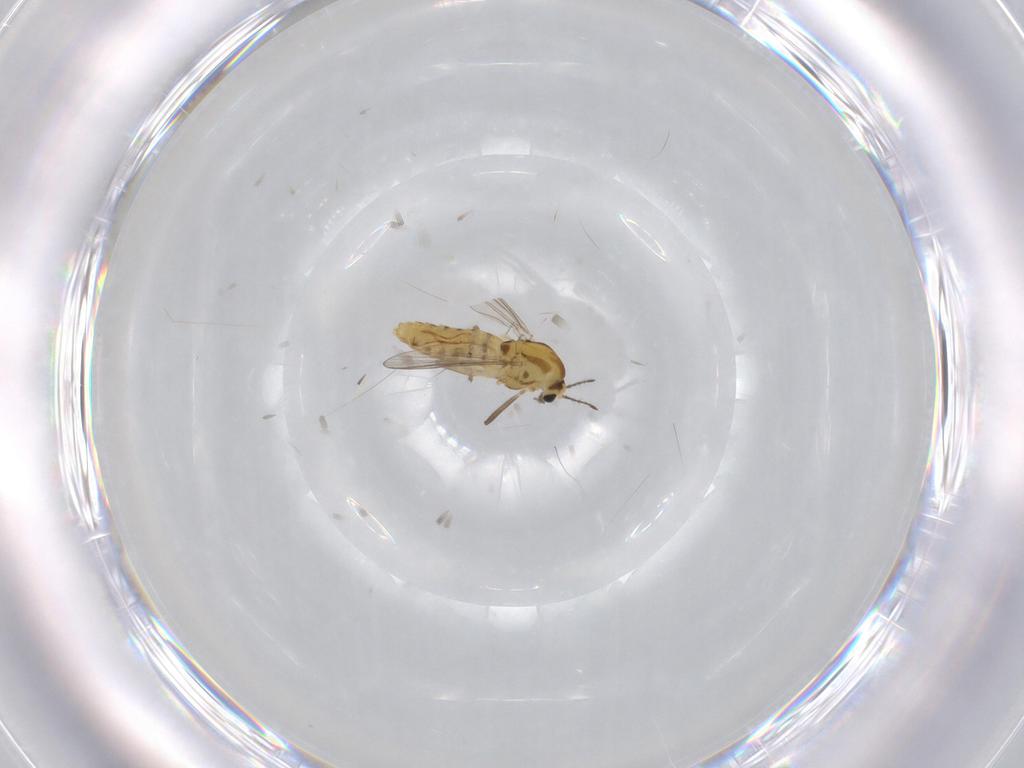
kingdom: Animalia
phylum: Arthropoda
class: Insecta
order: Diptera
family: Chironomidae
